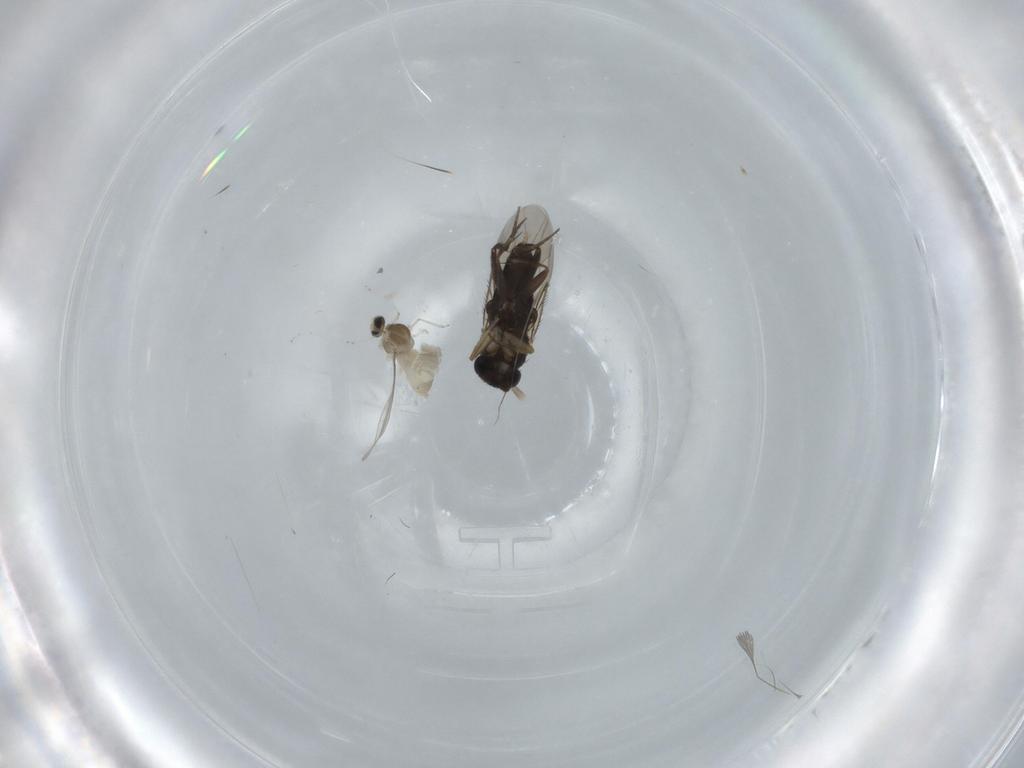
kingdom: Animalia
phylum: Arthropoda
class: Insecta
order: Diptera
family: Cecidomyiidae
